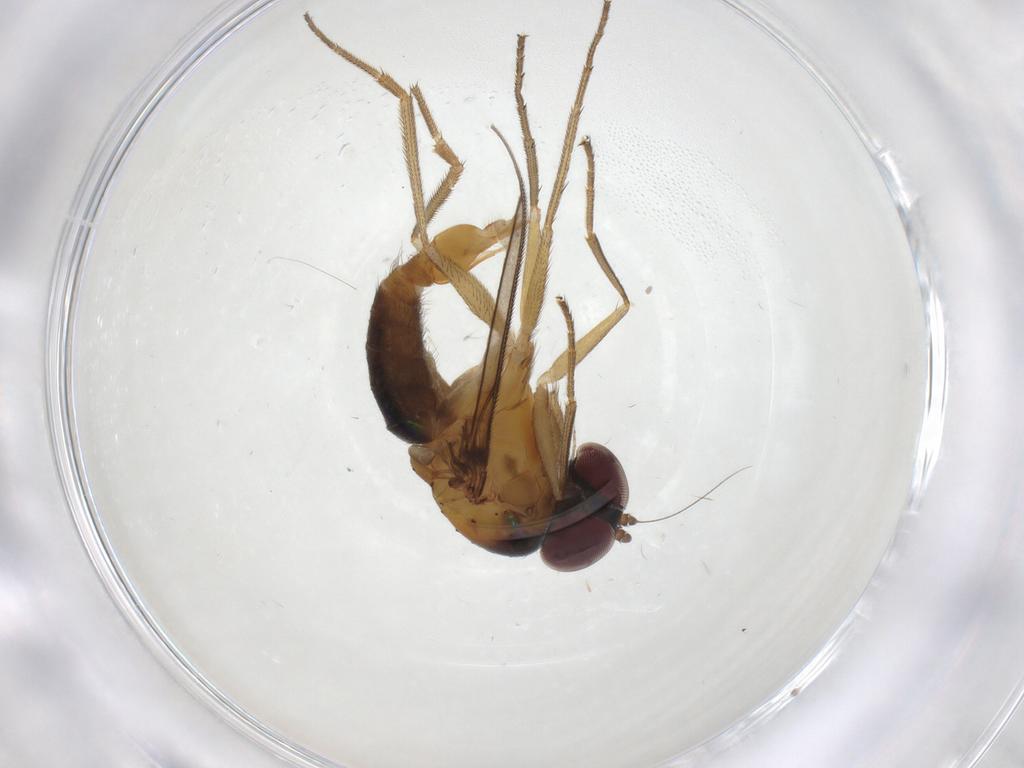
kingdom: Animalia
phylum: Arthropoda
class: Insecta
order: Diptera
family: Dolichopodidae
